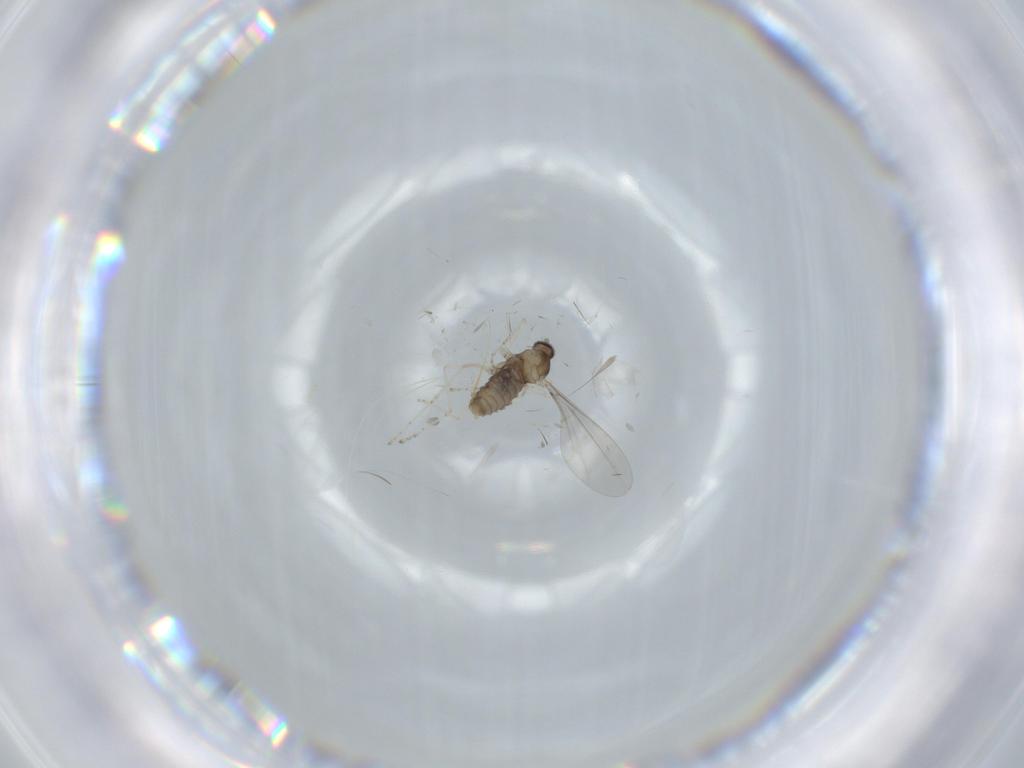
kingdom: Animalia
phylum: Arthropoda
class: Insecta
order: Diptera
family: Cecidomyiidae
